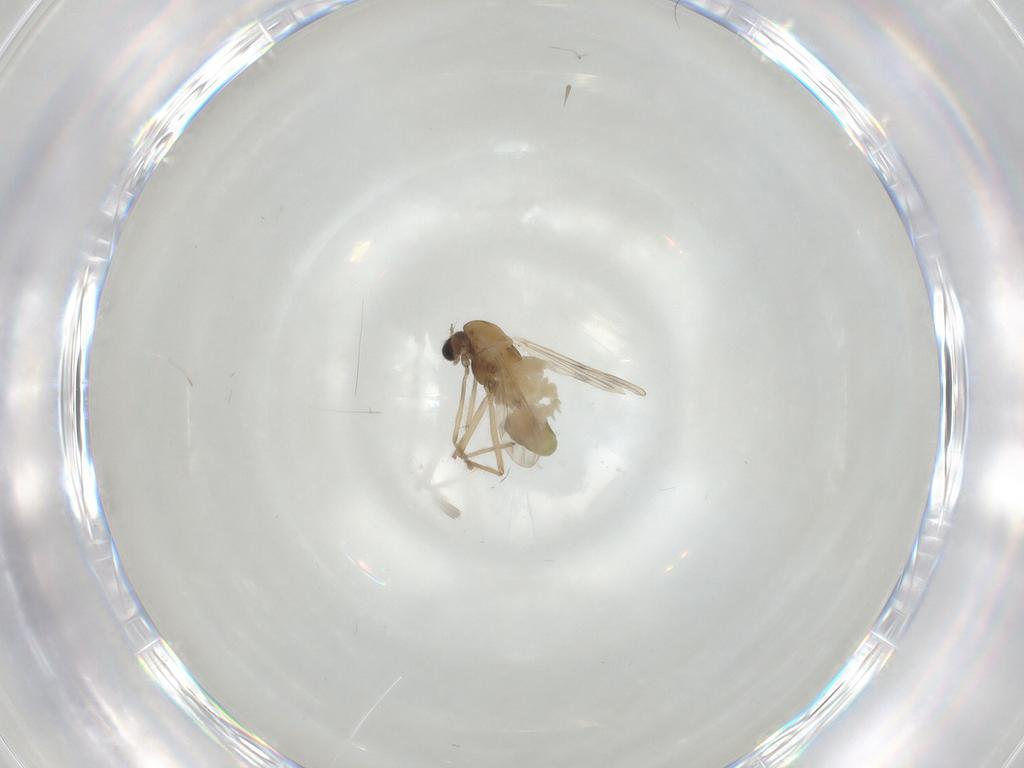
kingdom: Animalia
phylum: Arthropoda
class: Insecta
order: Diptera
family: Chironomidae
